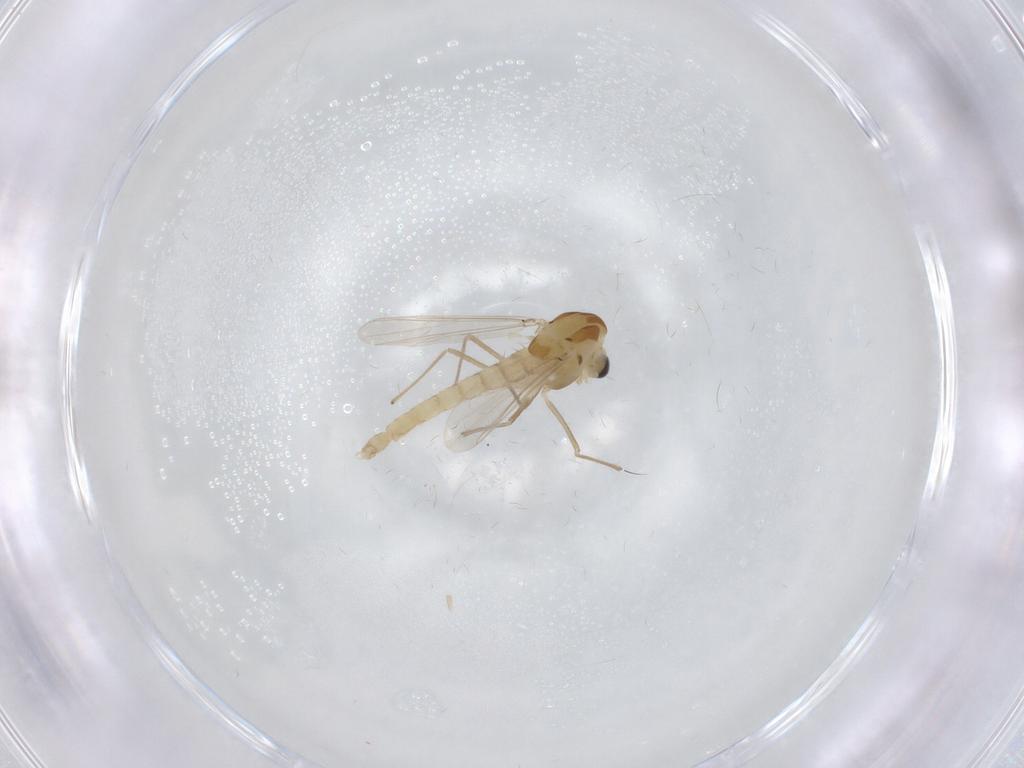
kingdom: Animalia
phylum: Arthropoda
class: Insecta
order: Diptera
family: Chironomidae
